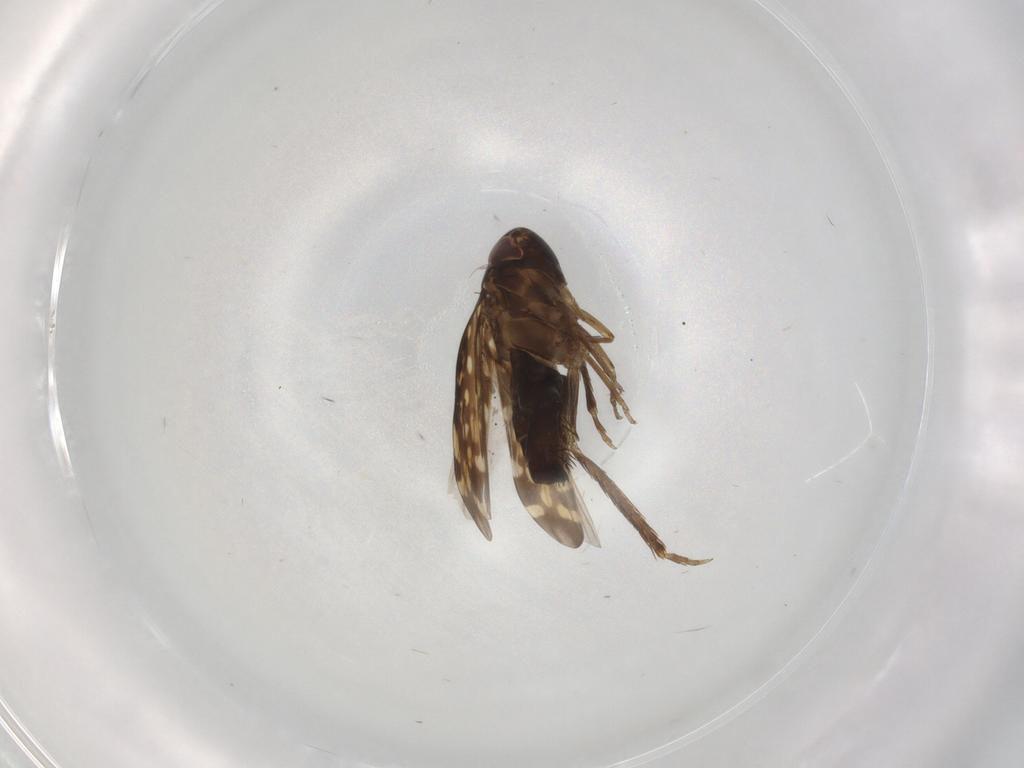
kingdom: Animalia
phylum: Arthropoda
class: Insecta
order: Hemiptera
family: Cicadellidae
